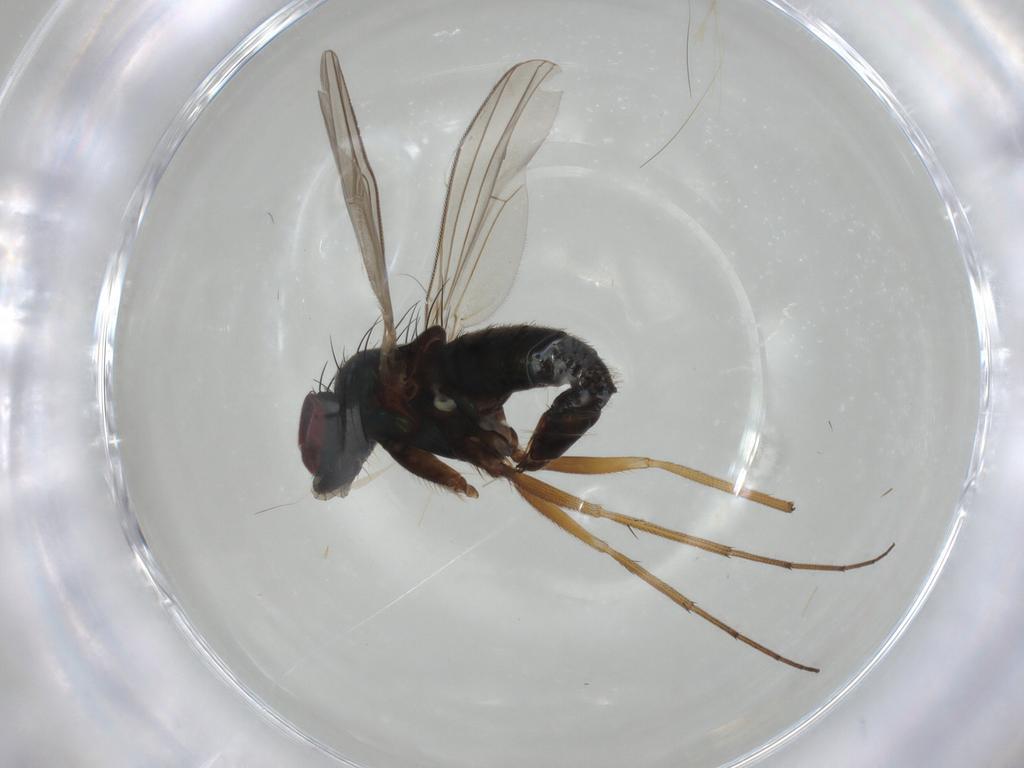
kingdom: Animalia
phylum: Arthropoda
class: Insecta
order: Diptera
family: Dolichopodidae
